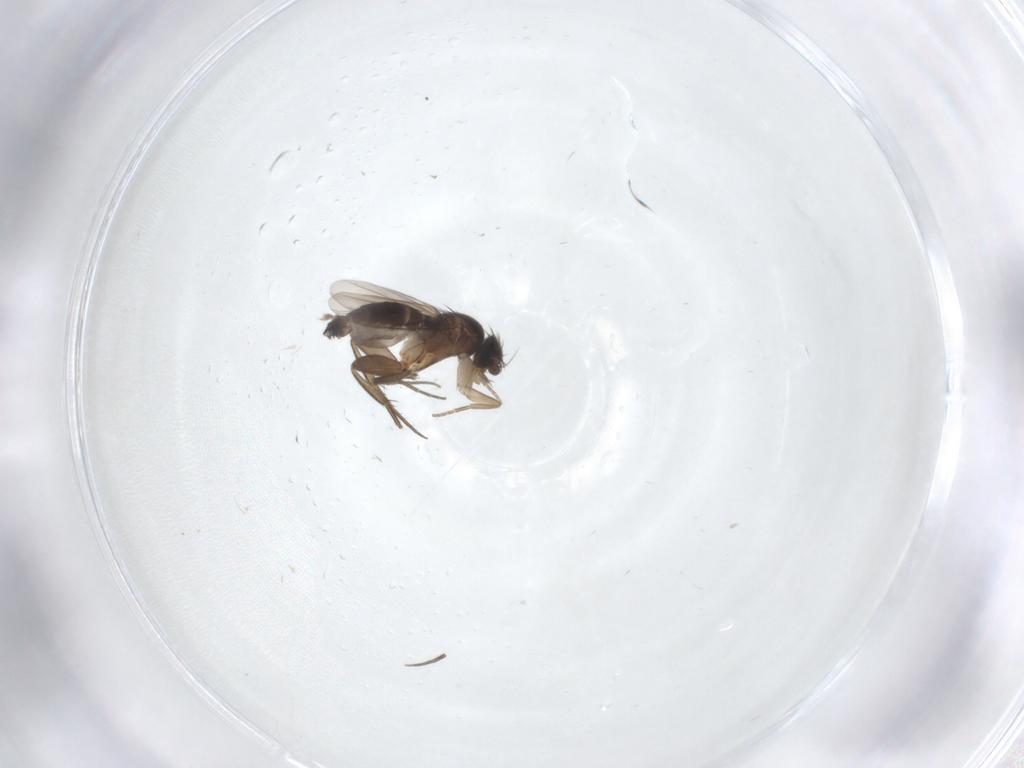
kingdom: Animalia
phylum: Arthropoda
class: Insecta
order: Diptera
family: Phoridae
